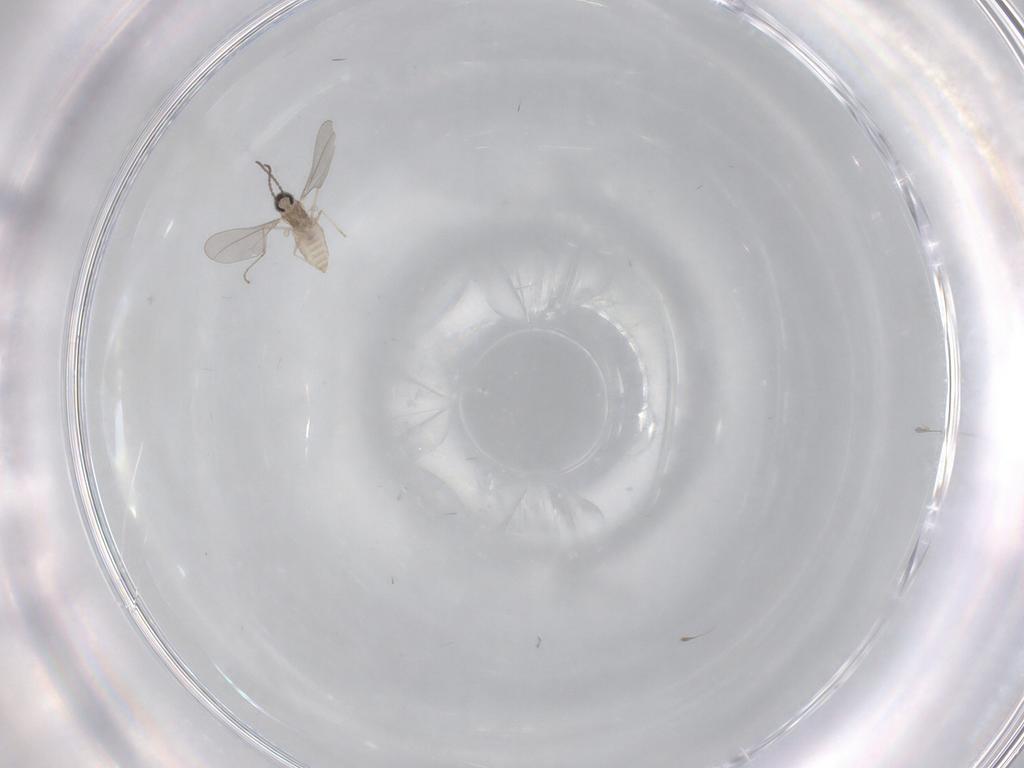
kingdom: Animalia
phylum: Arthropoda
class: Insecta
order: Diptera
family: Cecidomyiidae
